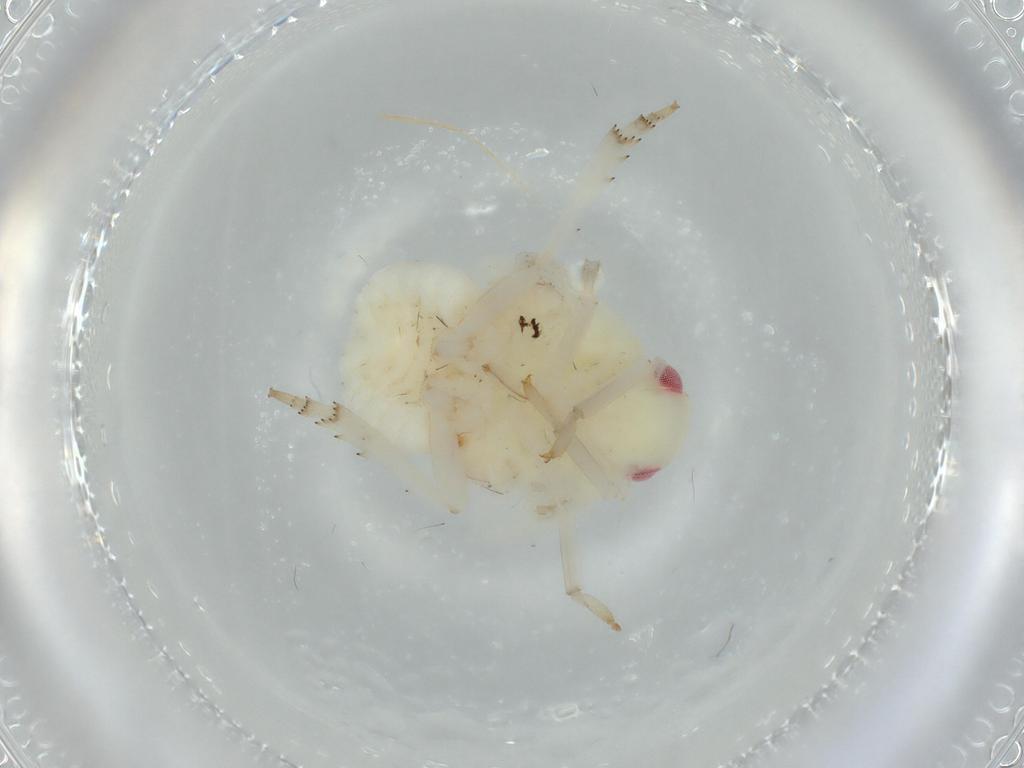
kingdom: Animalia
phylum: Arthropoda
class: Insecta
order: Hemiptera
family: Flatidae
